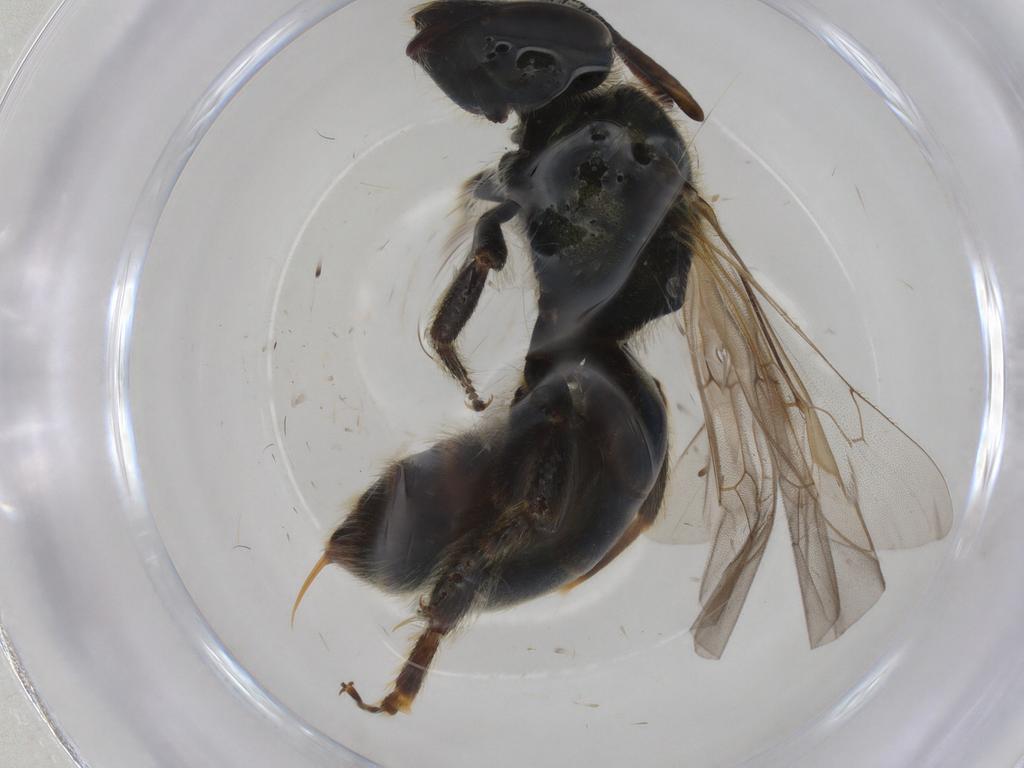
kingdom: Animalia
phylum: Arthropoda
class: Insecta
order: Hymenoptera
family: Halictidae
